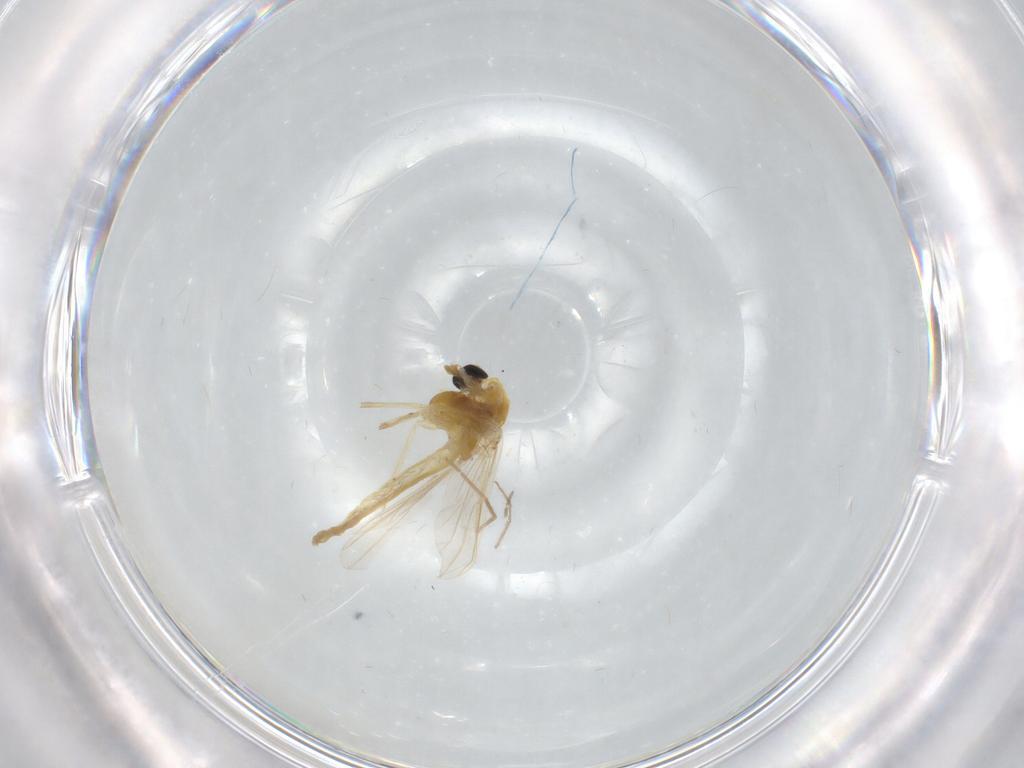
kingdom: Animalia
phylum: Arthropoda
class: Insecta
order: Diptera
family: Chironomidae
